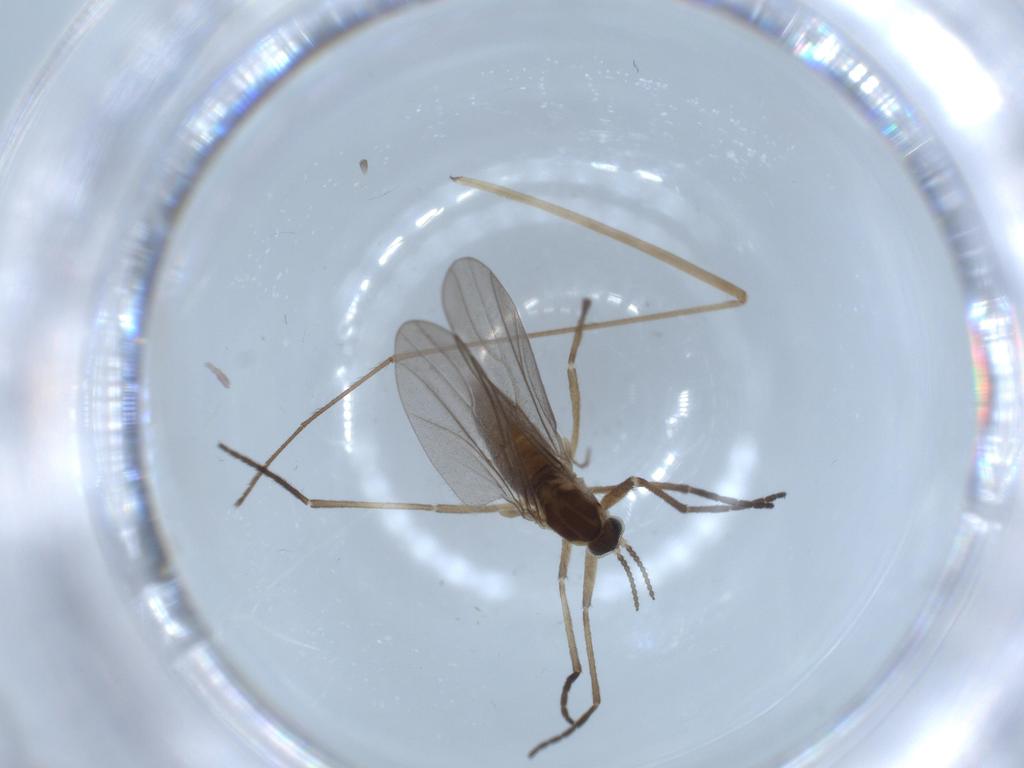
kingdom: Animalia
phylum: Arthropoda
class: Insecta
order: Diptera
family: Cecidomyiidae
